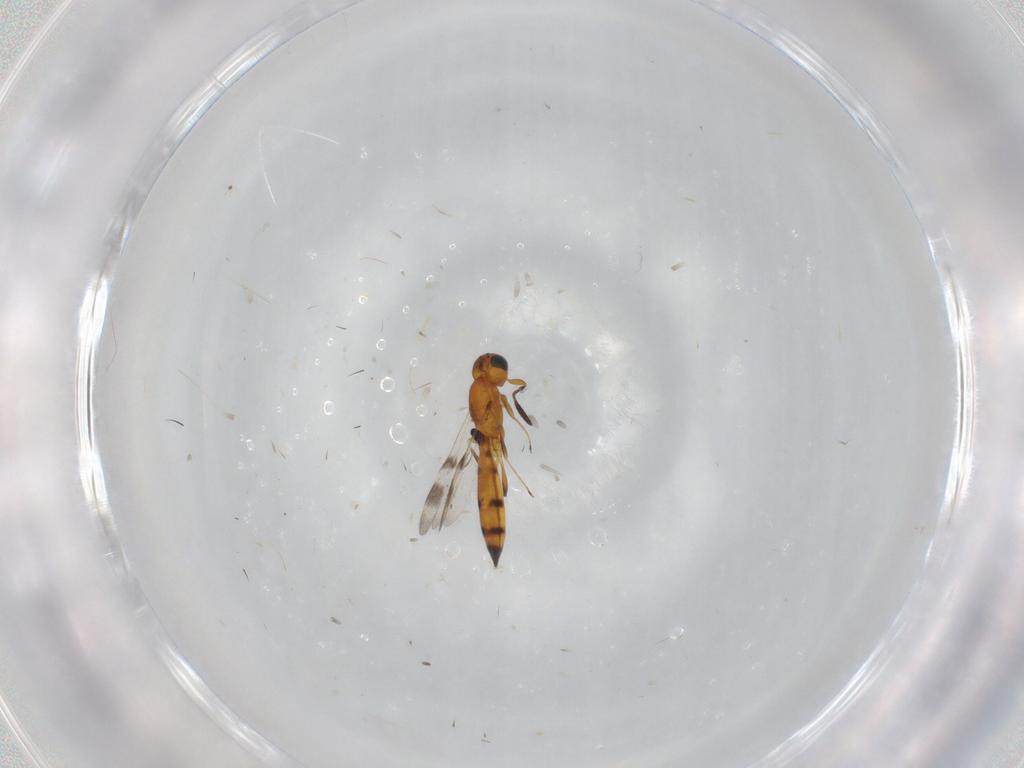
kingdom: Animalia
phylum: Arthropoda
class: Insecta
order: Hymenoptera
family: Scelionidae
